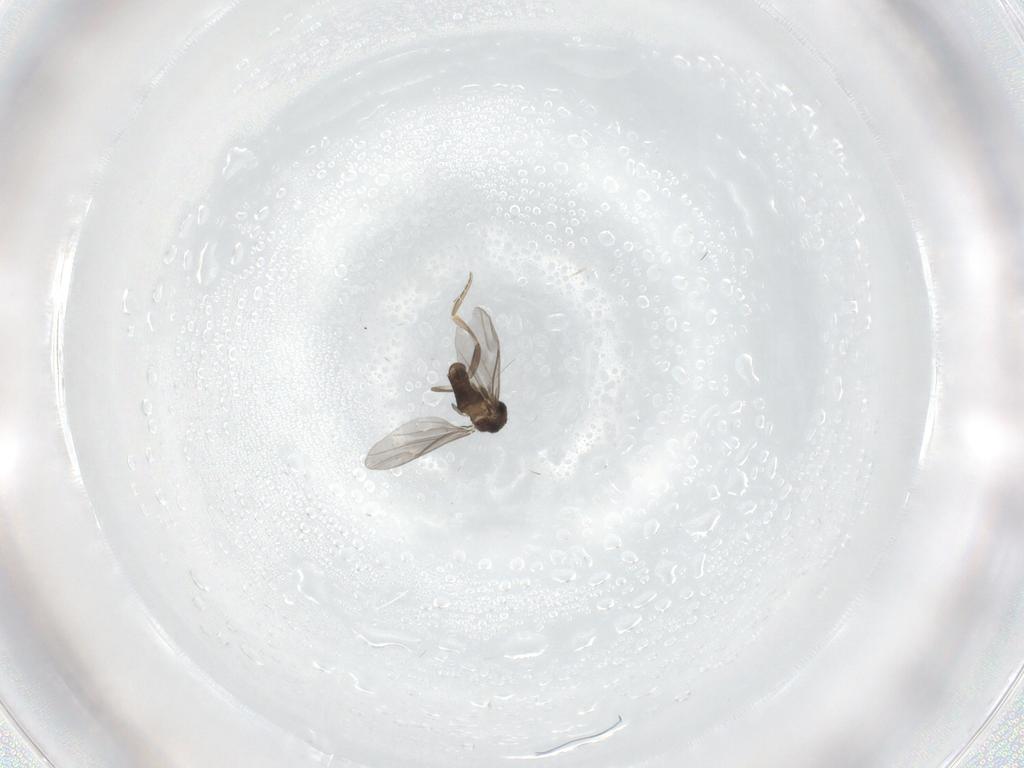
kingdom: Animalia
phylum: Arthropoda
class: Insecta
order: Diptera
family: Phoridae
